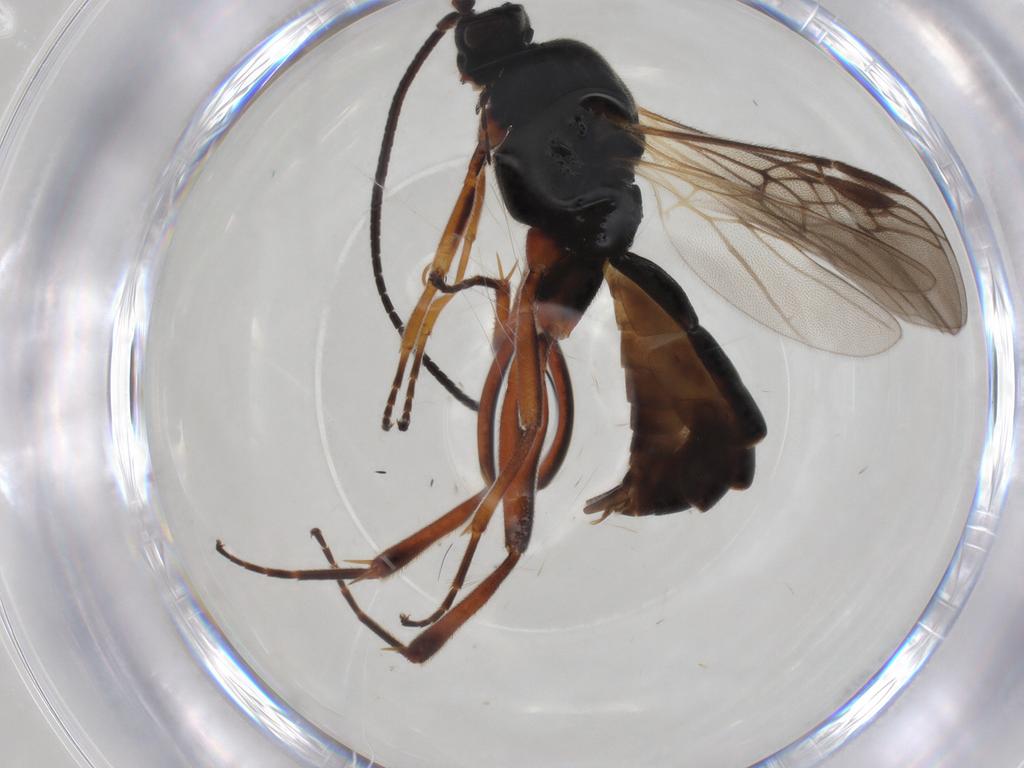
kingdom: Animalia
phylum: Arthropoda
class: Insecta
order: Hymenoptera
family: Braconidae
